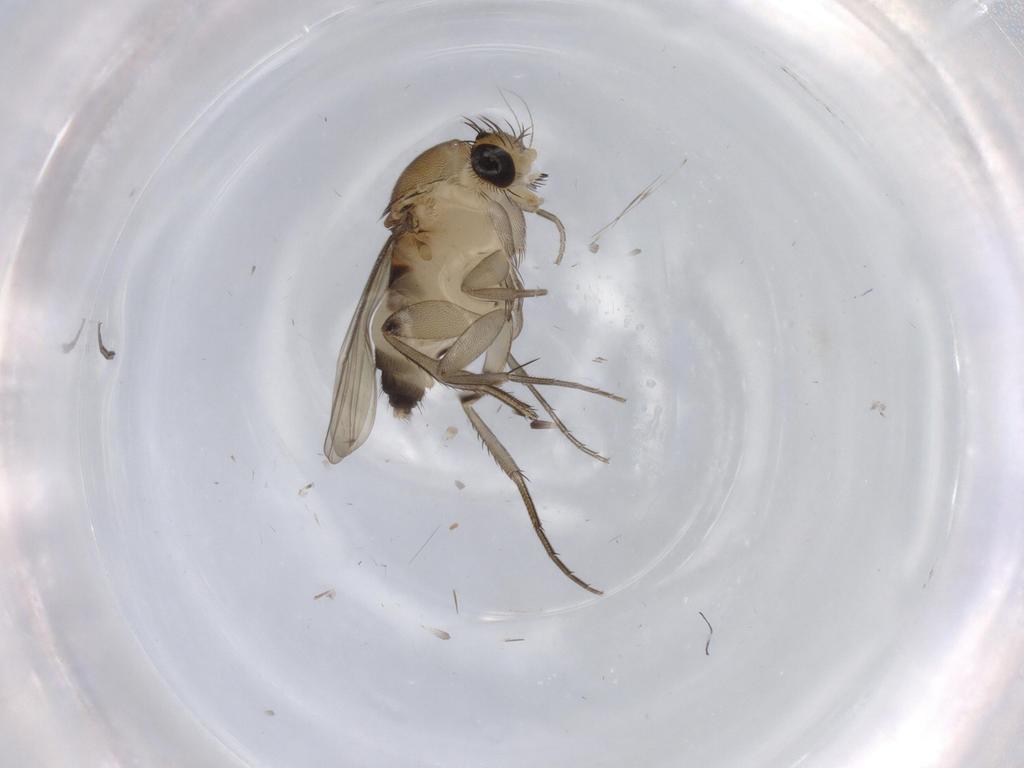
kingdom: Animalia
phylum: Arthropoda
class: Insecta
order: Diptera
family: Phoridae
